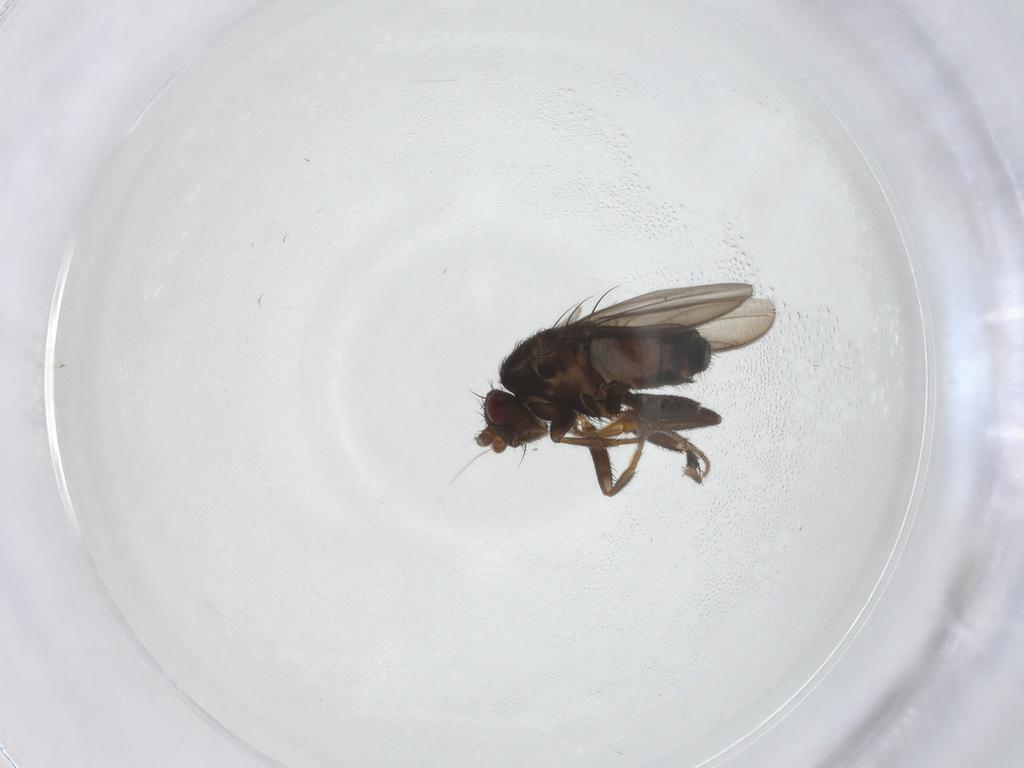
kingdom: Animalia
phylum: Arthropoda
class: Insecta
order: Diptera
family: Sphaeroceridae
